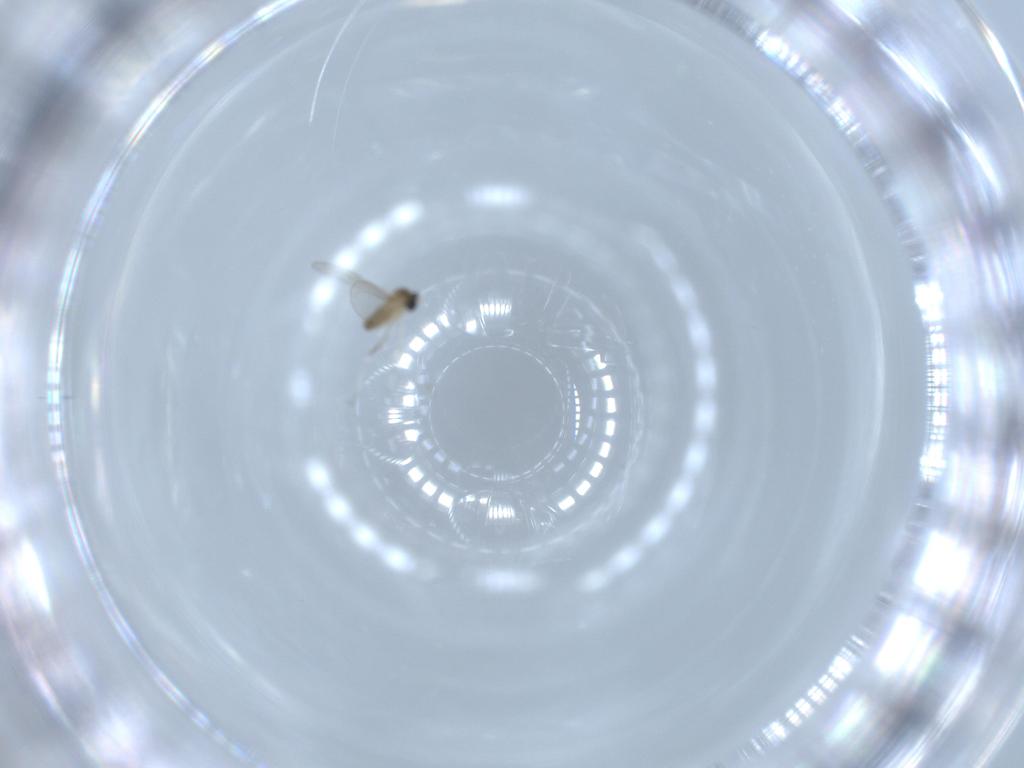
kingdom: Animalia
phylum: Arthropoda
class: Insecta
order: Diptera
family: Cecidomyiidae
